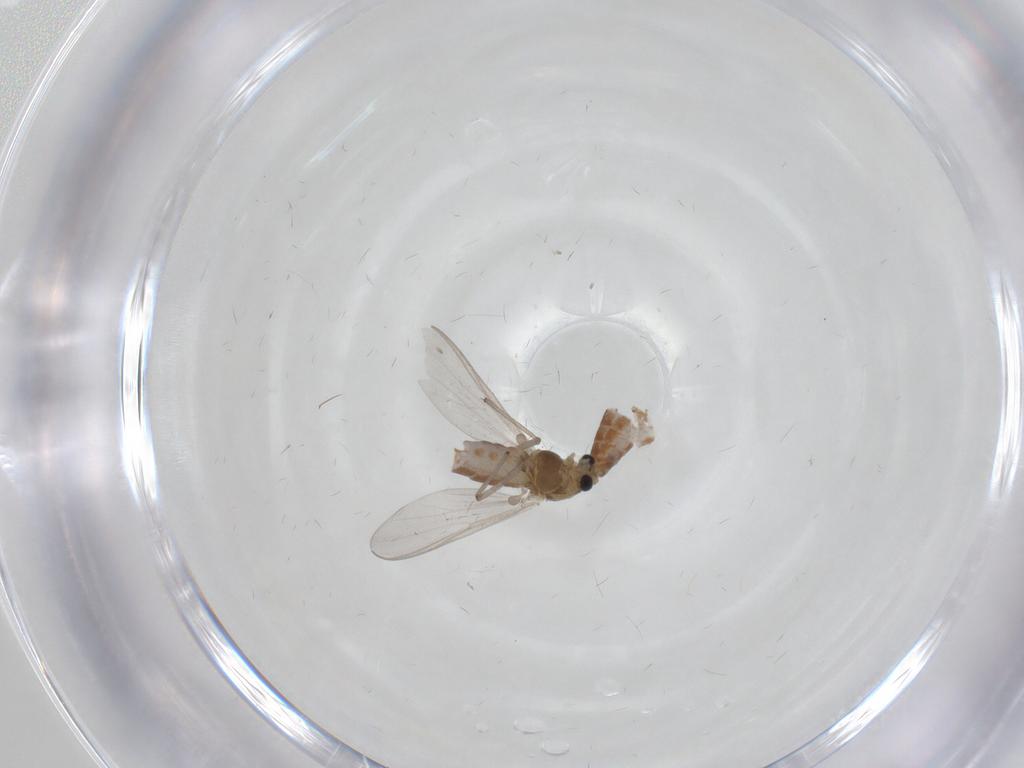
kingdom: Animalia
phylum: Arthropoda
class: Insecta
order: Diptera
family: Chironomidae
